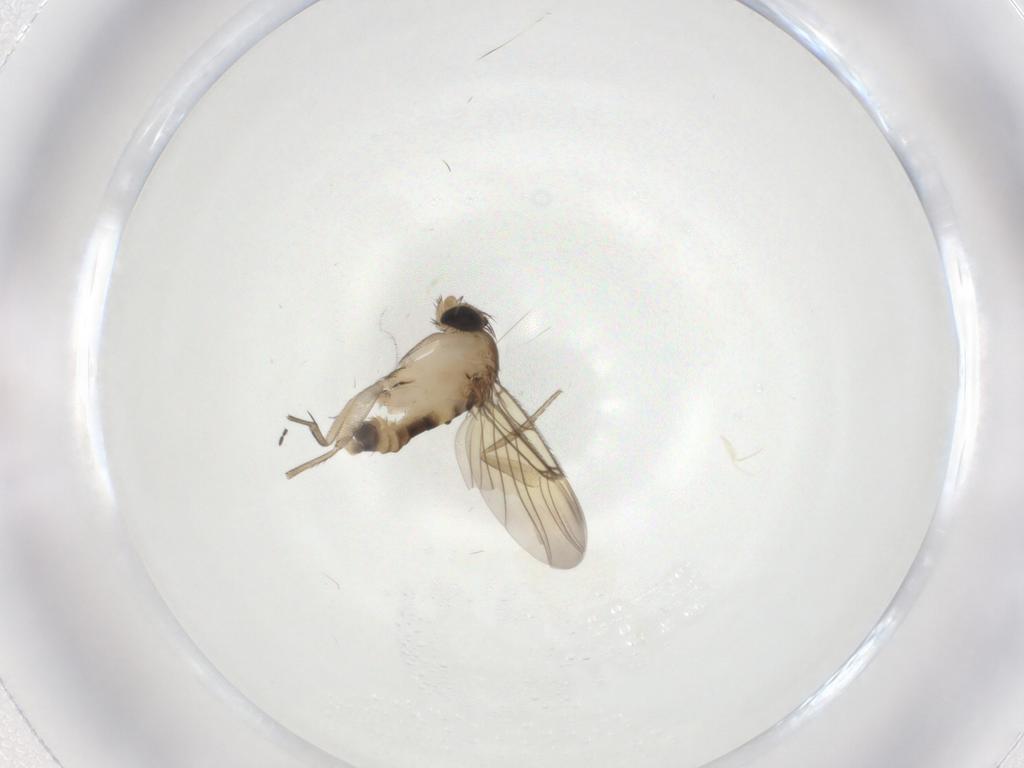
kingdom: Animalia
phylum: Arthropoda
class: Insecta
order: Diptera
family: Phoridae
